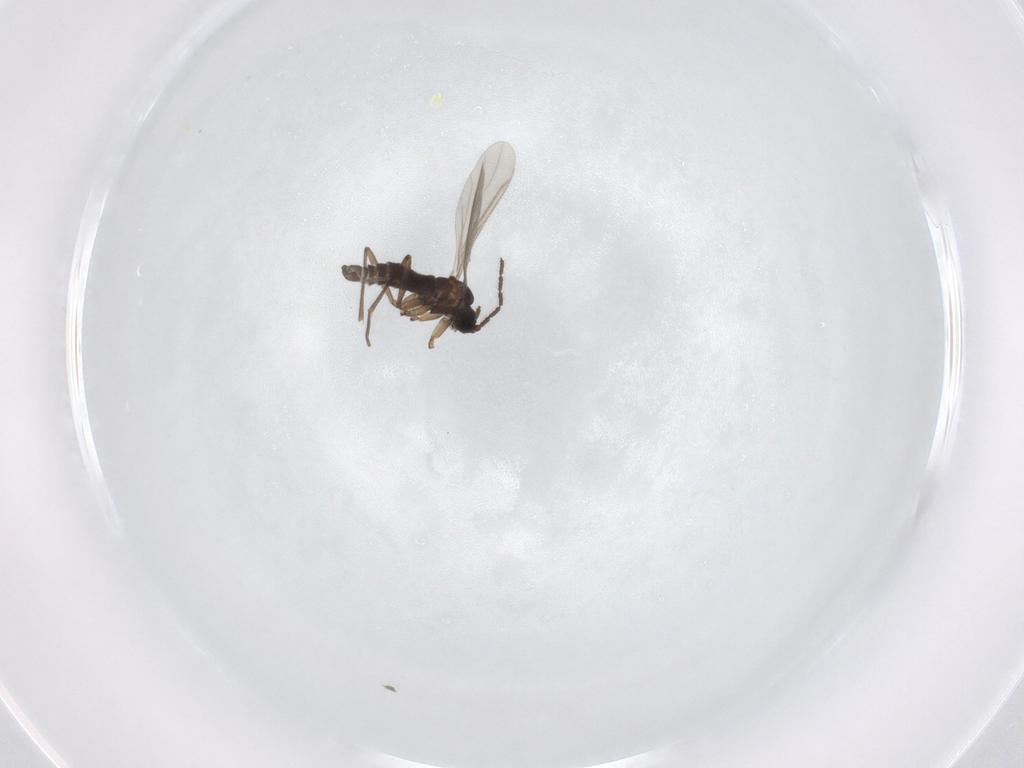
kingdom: Animalia
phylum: Arthropoda
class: Insecta
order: Diptera
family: Sciaridae
